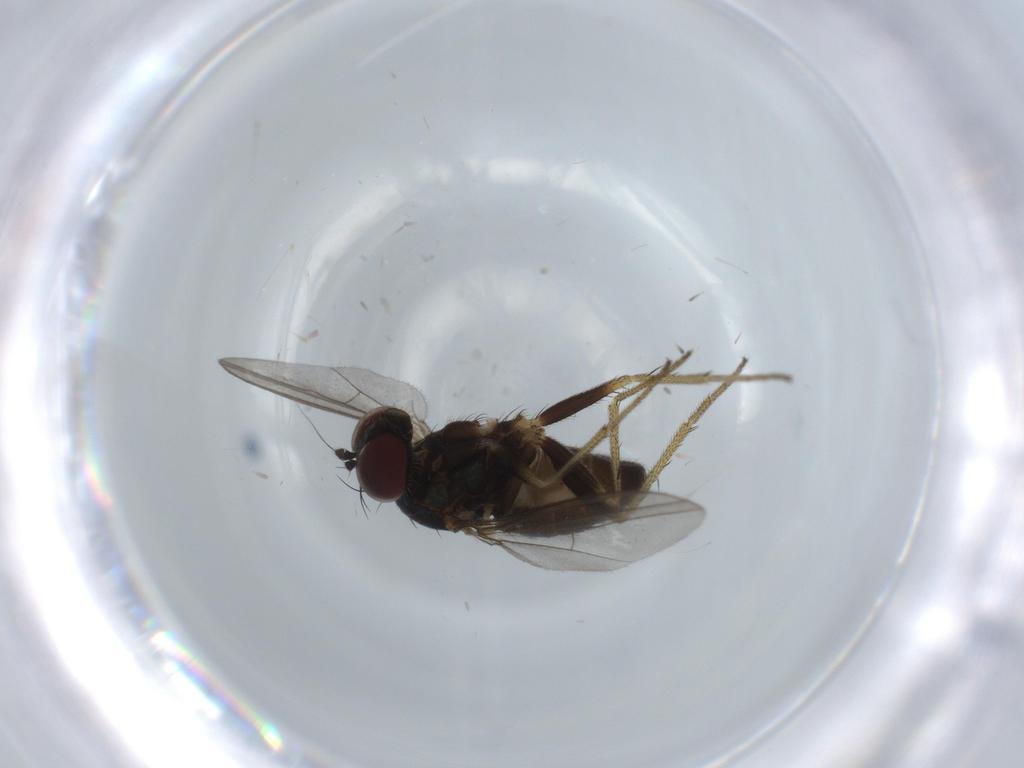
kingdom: Animalia
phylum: Arthropoda
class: Insecta
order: Diptera
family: Dolichopodidae
